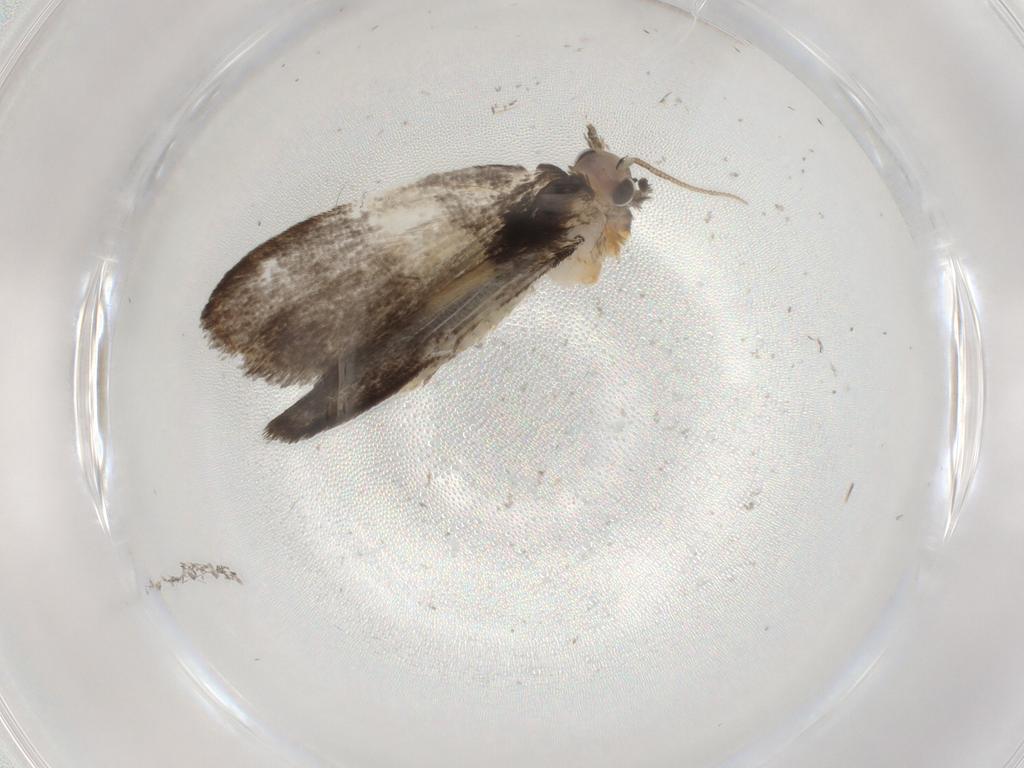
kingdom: Animalia
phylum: Arthropoda
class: Insecta
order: Lepidoptera
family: Psychidae
